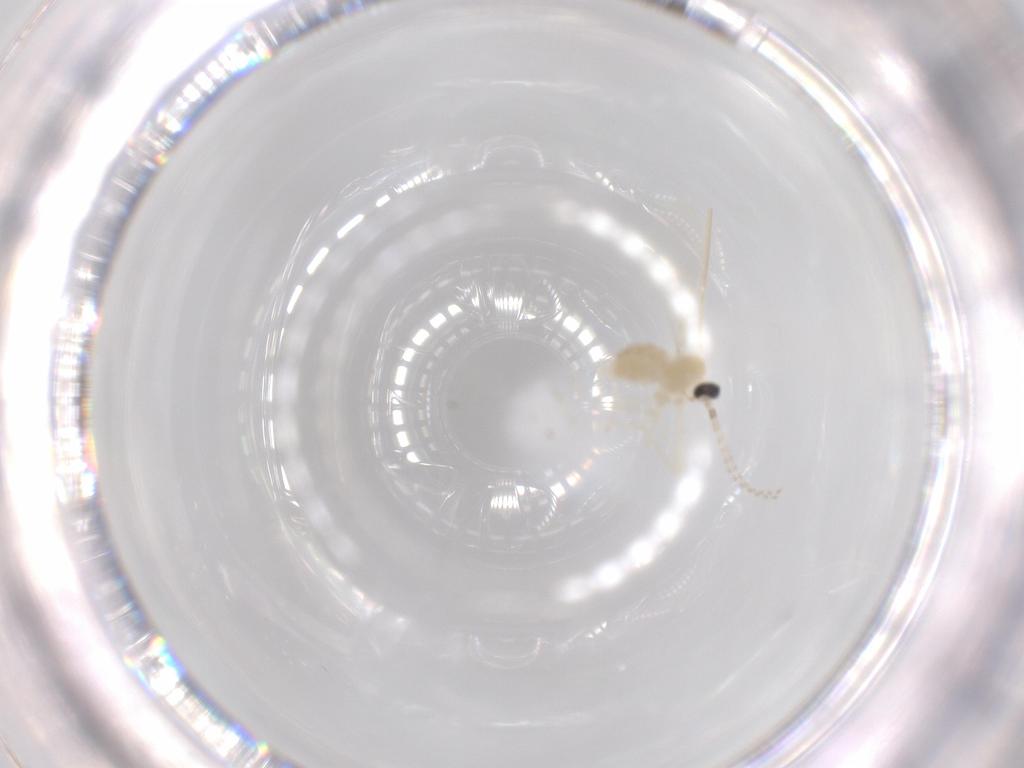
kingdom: Animalia
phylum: Arthropoda
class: Insecta
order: Diptera
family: Cecidomyiidae
